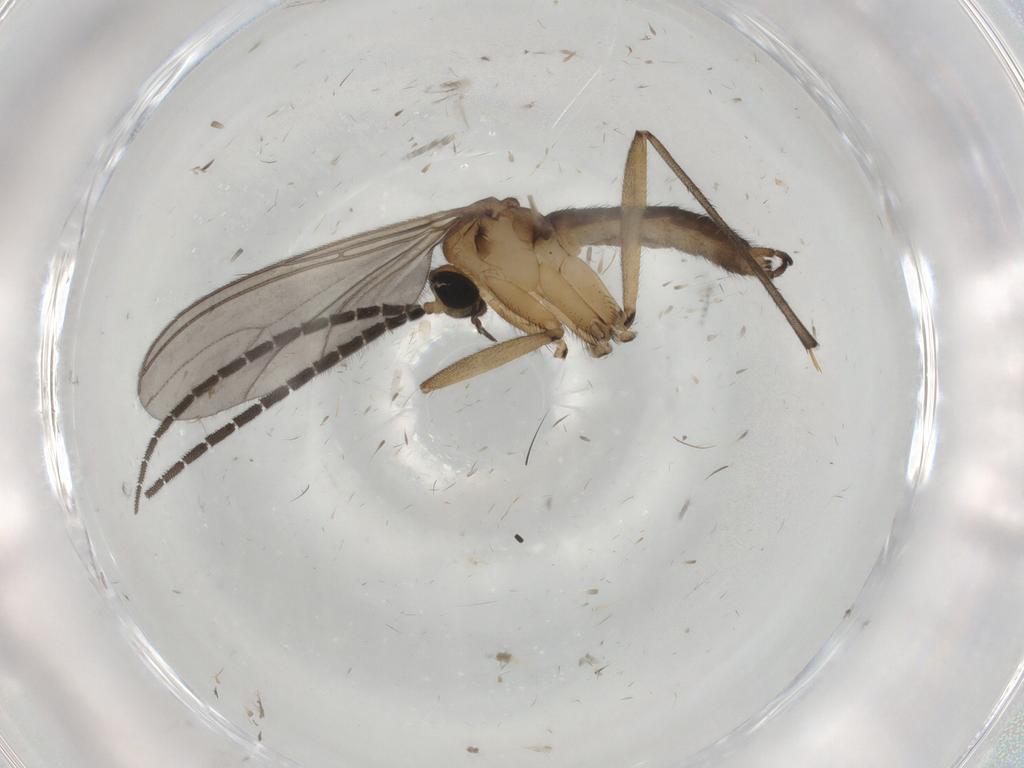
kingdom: Animalia
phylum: Arthropoda
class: Insecta
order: Diptera
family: Sciaridae
